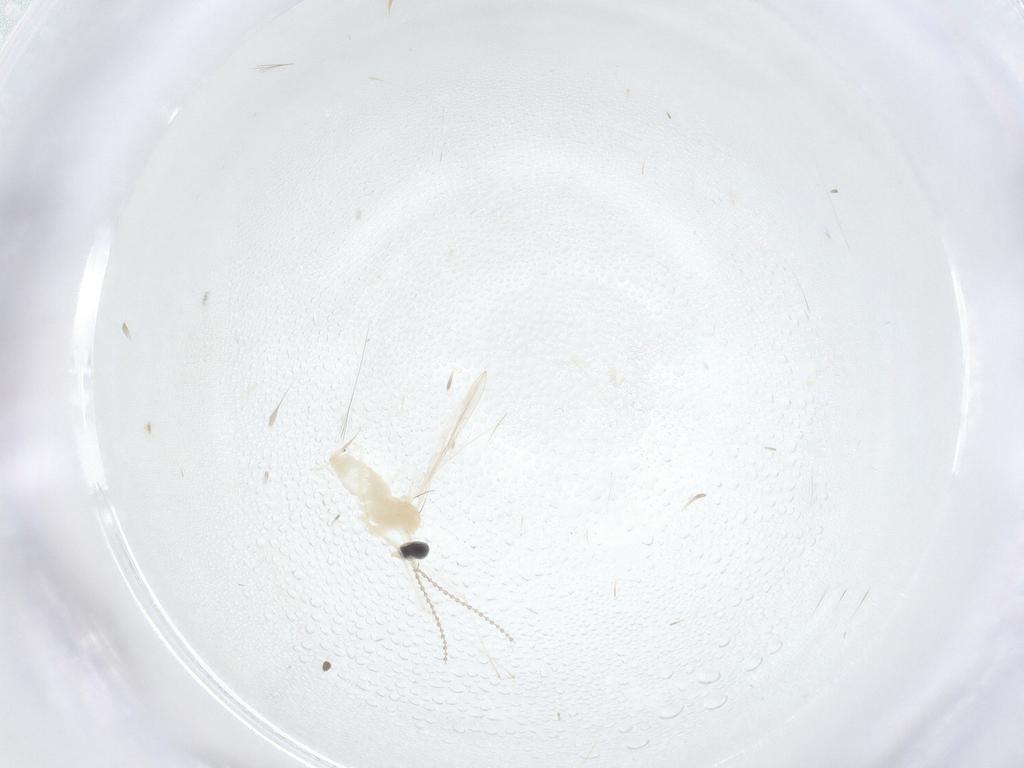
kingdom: Animalia
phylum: Arthropoda
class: Insecta
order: Diptera
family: Cecidomyiidae
